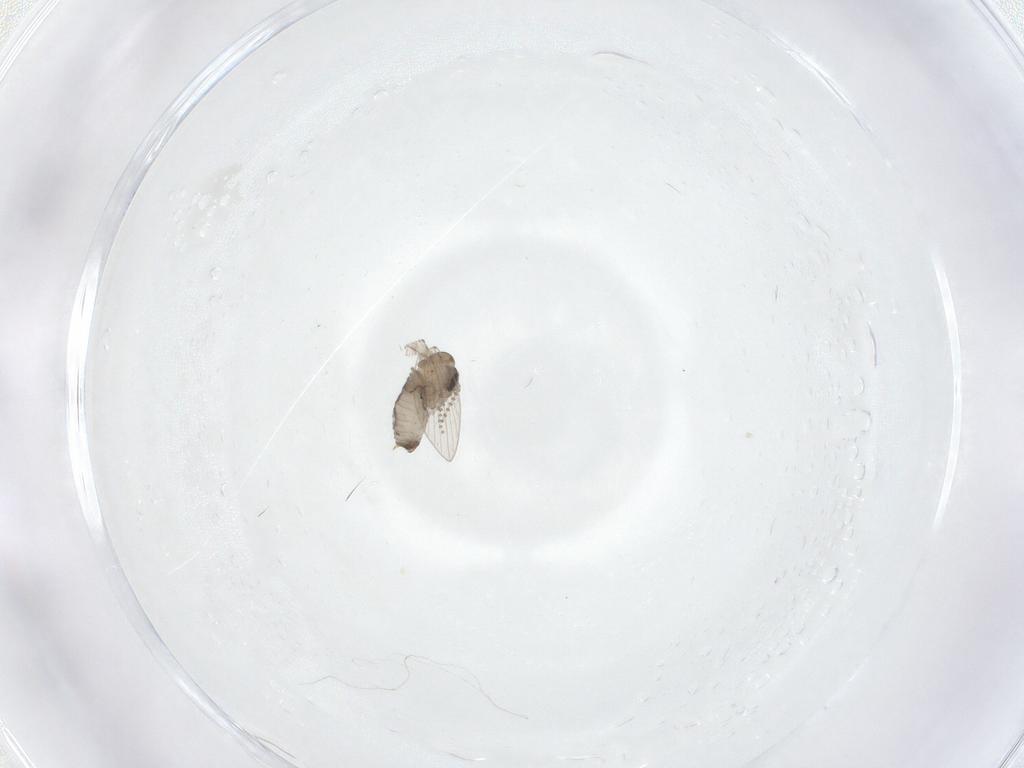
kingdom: Animalia
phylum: Arthropoda
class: Insecta
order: Diptera
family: Psychodidae
